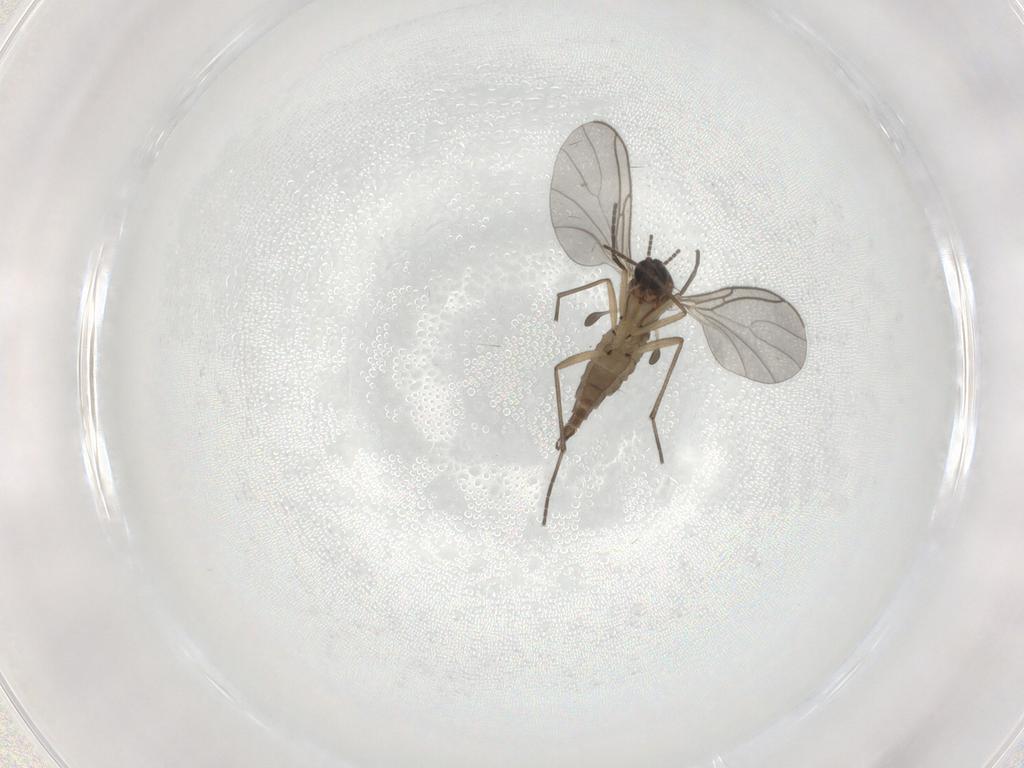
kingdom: Animalia
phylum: Arthropoda
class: Insecta
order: Diptera
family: Sciaridae
